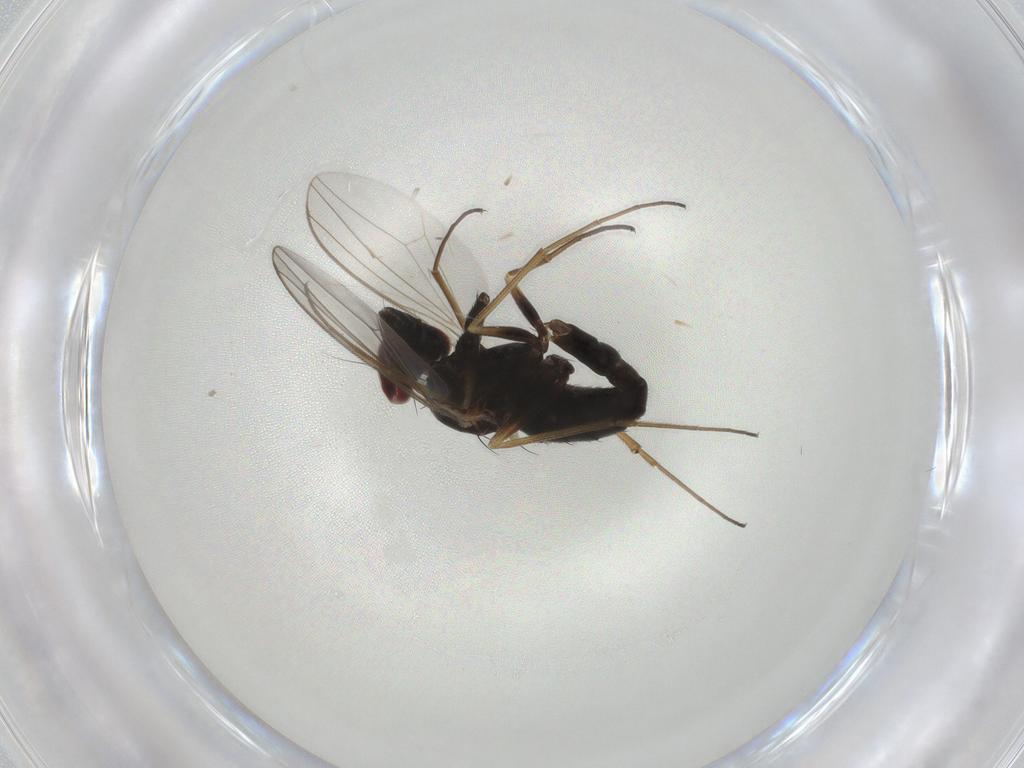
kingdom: Animalia
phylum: Arthropoda
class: Insecta
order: Diptera
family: Dolichopodidae
